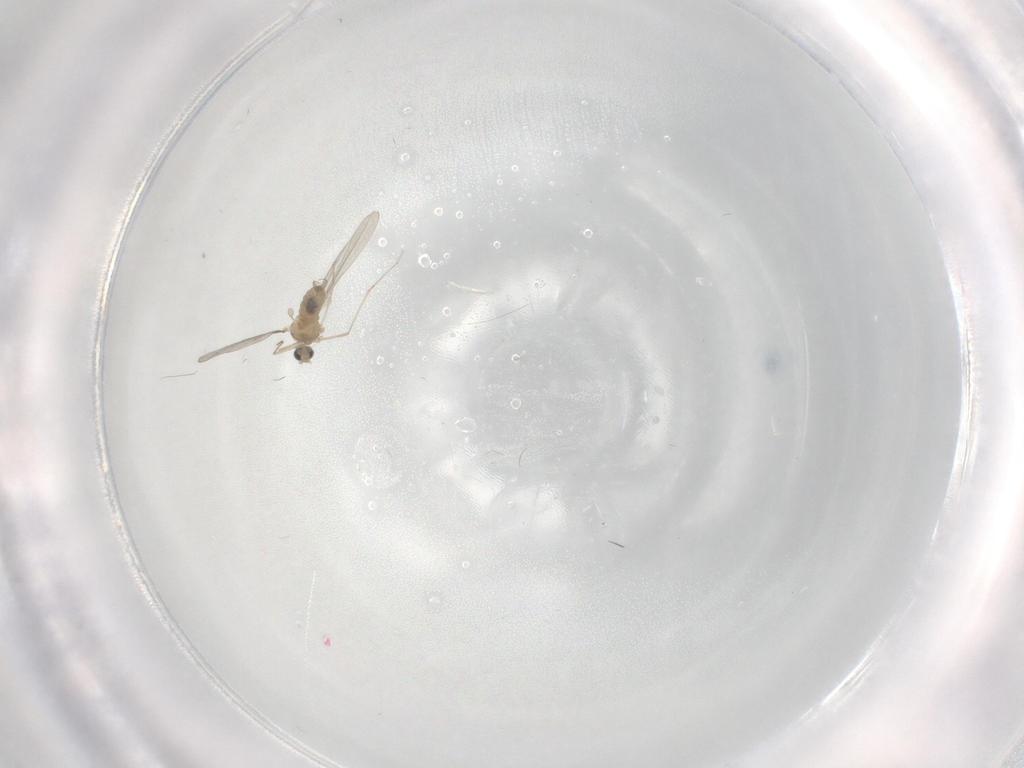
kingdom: Animalia
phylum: Arthropoda
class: Insecta
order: Diptera
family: Cecidomyiidae
